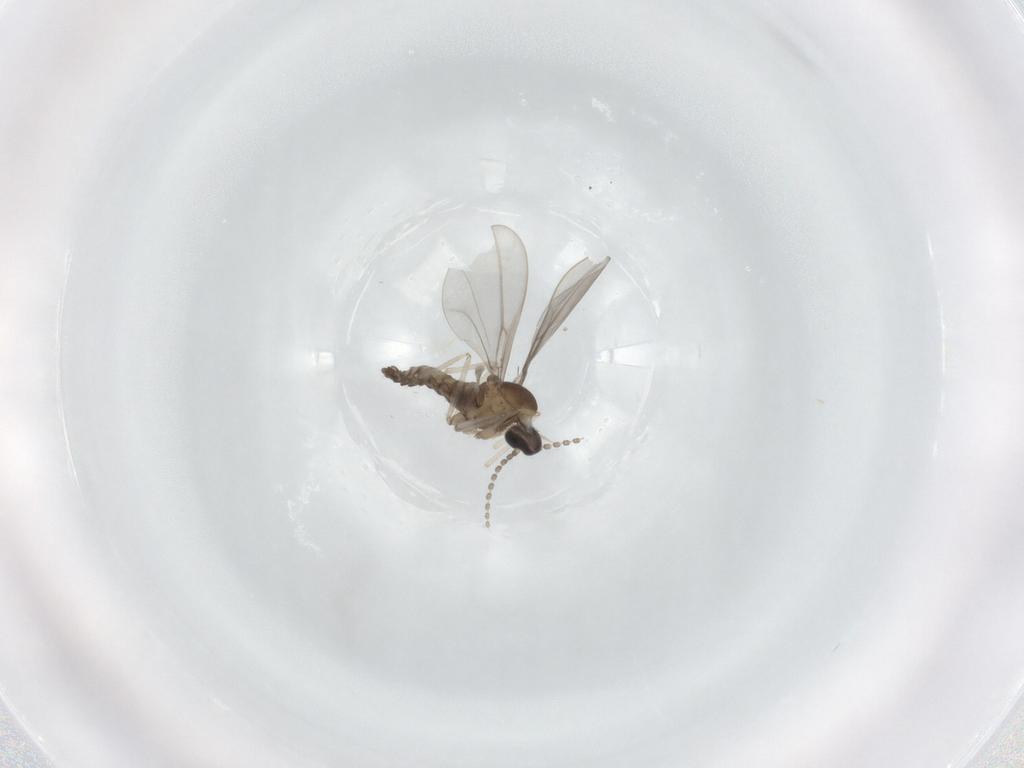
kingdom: Animalia
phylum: Arthropoda
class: Insecta
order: Diptera
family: Cecidomyiidae
